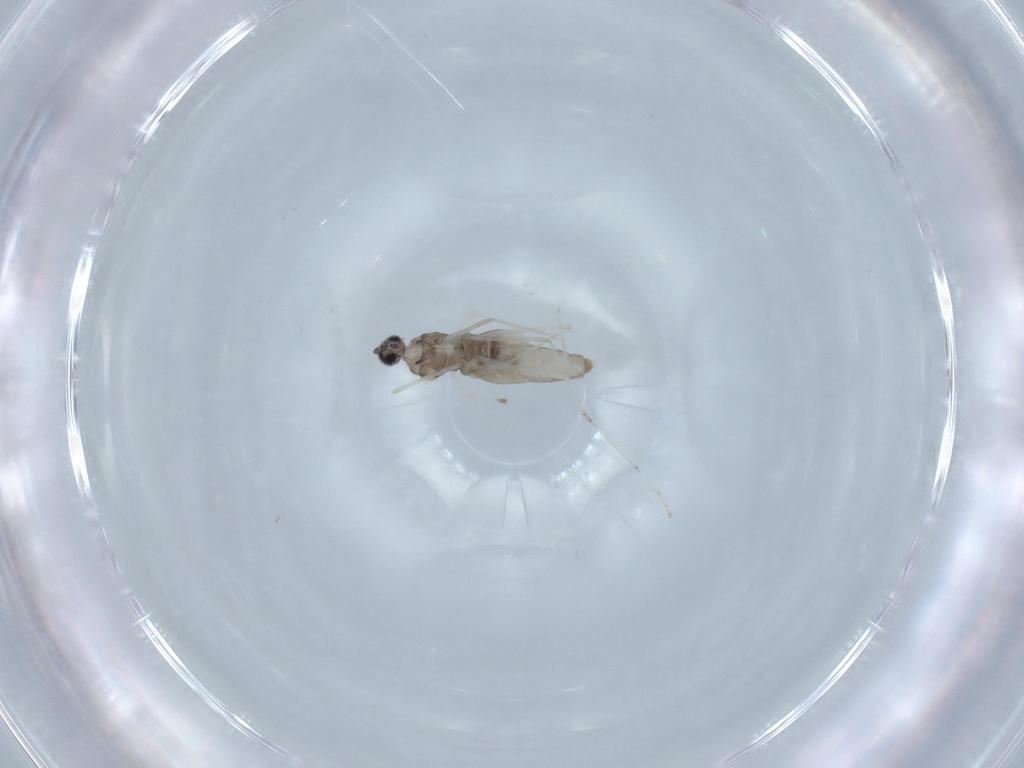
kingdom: Animalia
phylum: Arthropoda
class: Insecta
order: Diptera
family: Cecidomyiidae
